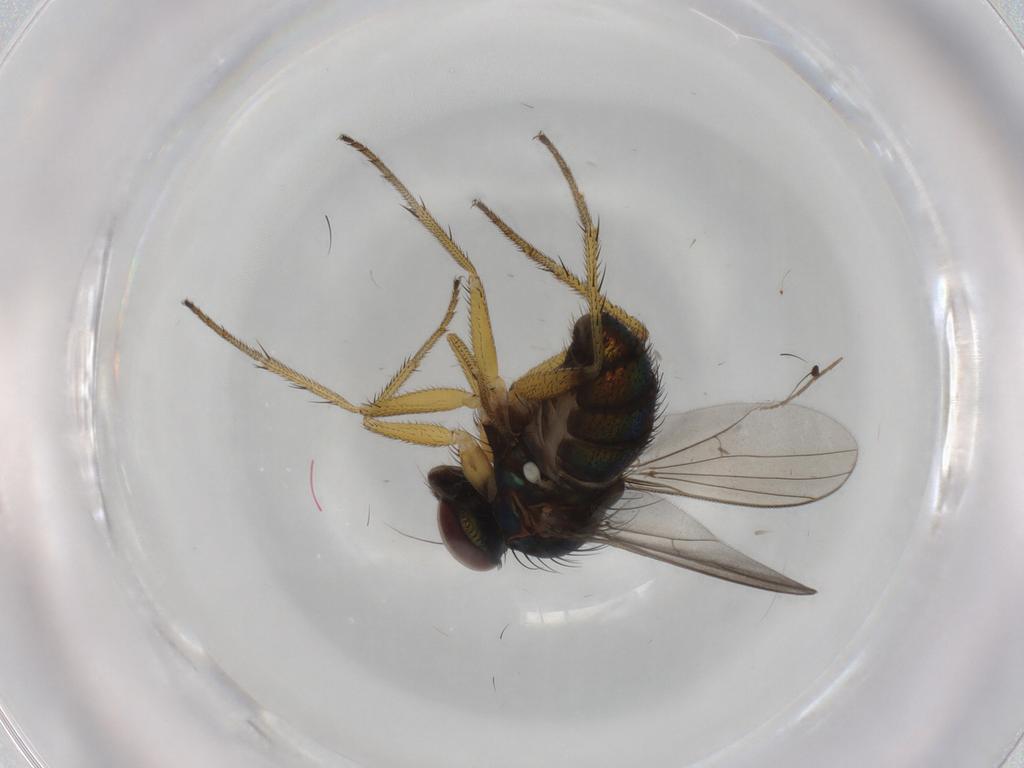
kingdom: Animalia
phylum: Arthropoda
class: Insecta
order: Diptera
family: Dolichopodidae
